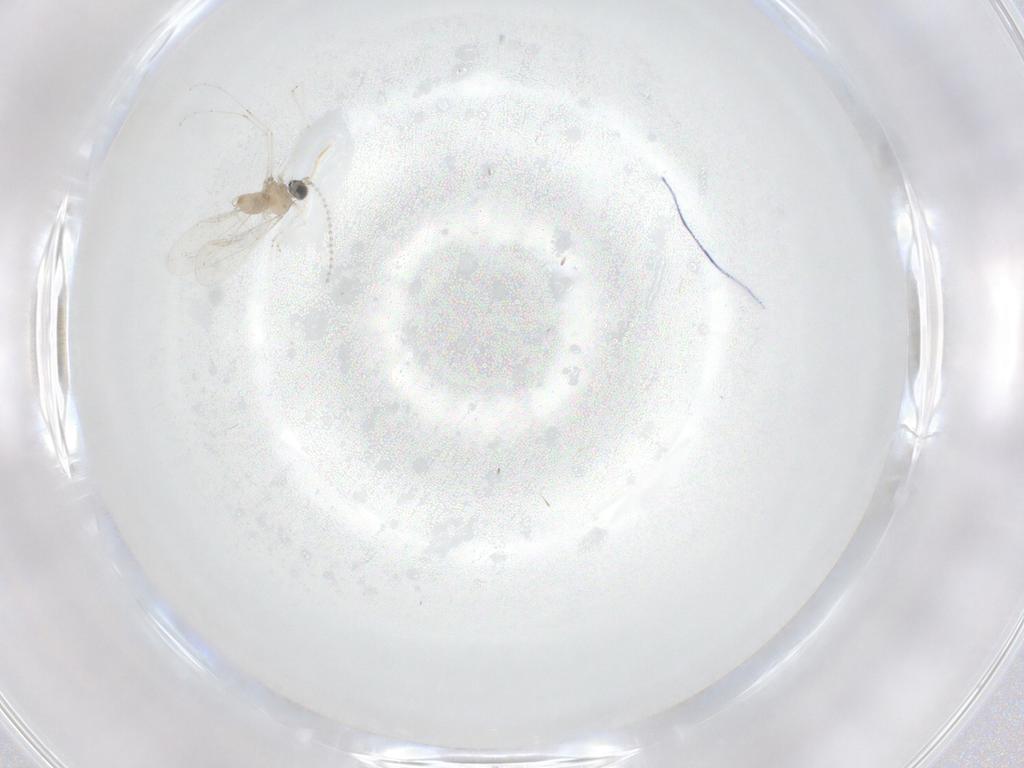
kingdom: Animalia
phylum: Arthropoda
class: Insecta
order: Diptera
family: Cecidomyiidae
